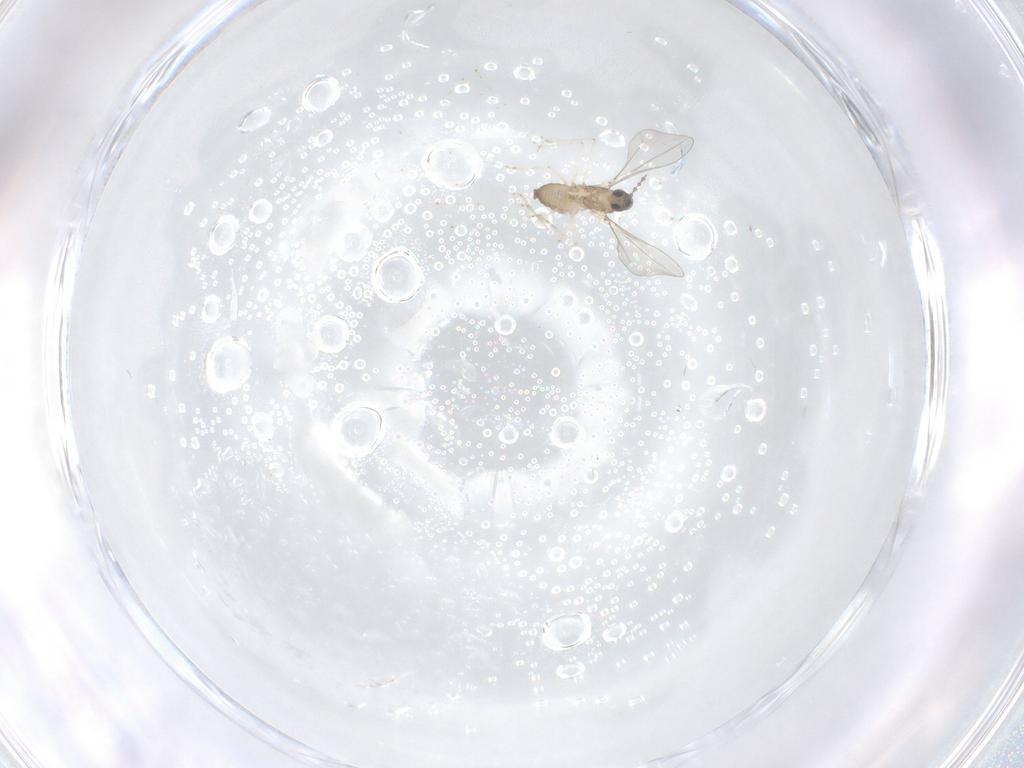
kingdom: Animalia
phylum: Arthropoda
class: Insecta
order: Diptera
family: Cecidomyiidae
